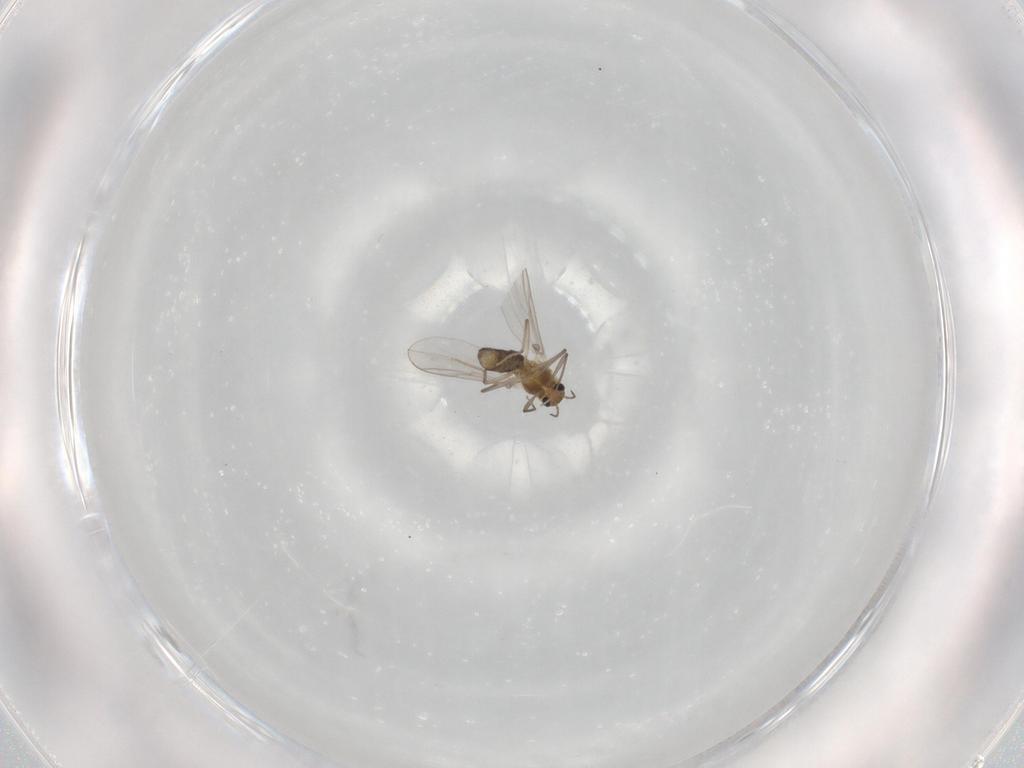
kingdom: Animalia
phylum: Arthropoda
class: Insecta
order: Diptera
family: Chironomidae
